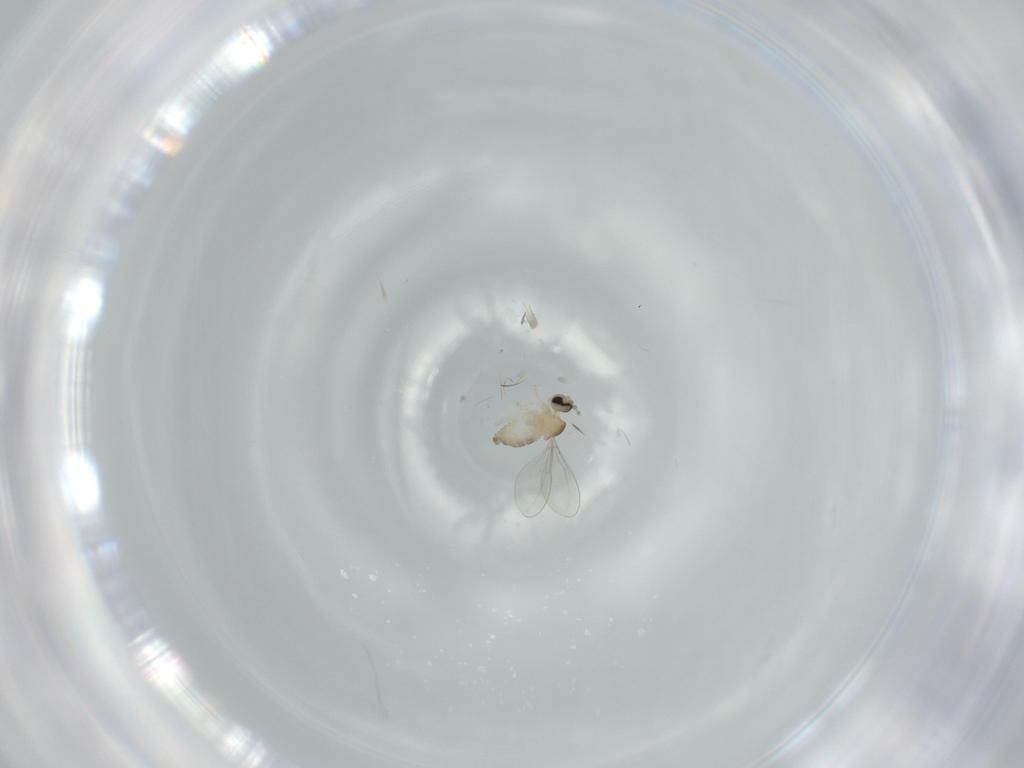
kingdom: Animalia
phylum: Arthropoda
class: Insecta
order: Diptera
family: Cecidomyiidae
